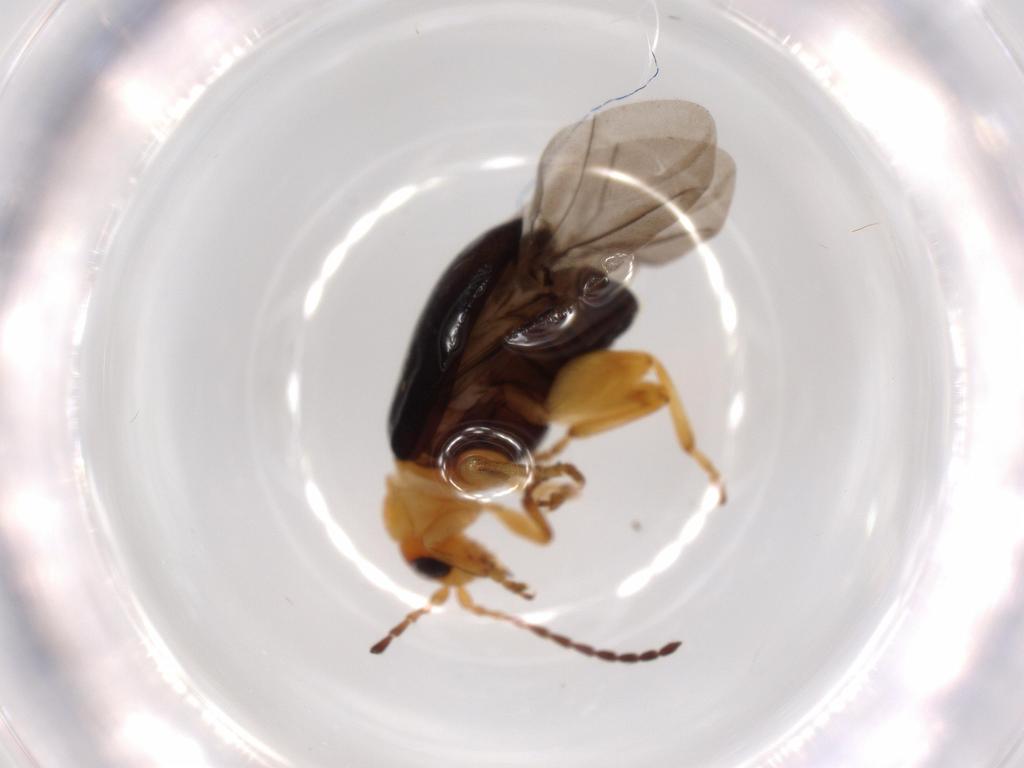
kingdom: Animalia
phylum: Arthropoda
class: Insecta
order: Coleoptera
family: Chrysomelidae
